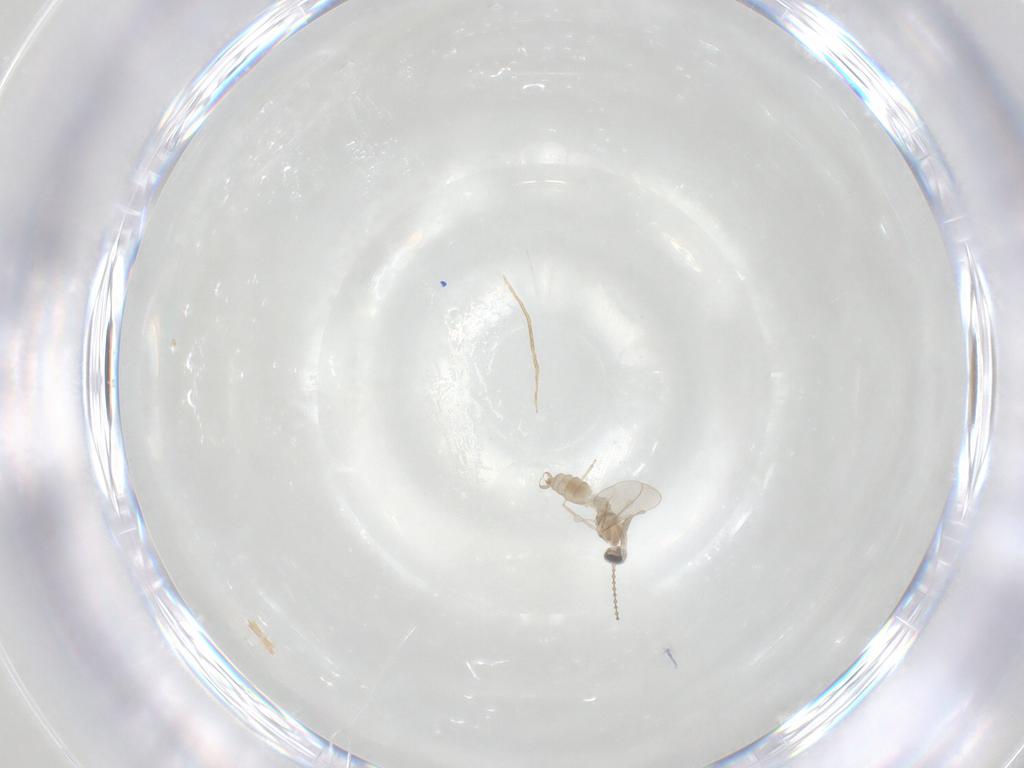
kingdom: Animalia
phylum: Arthropoda
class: Insecta
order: Diptera
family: Cecidomyiidae
